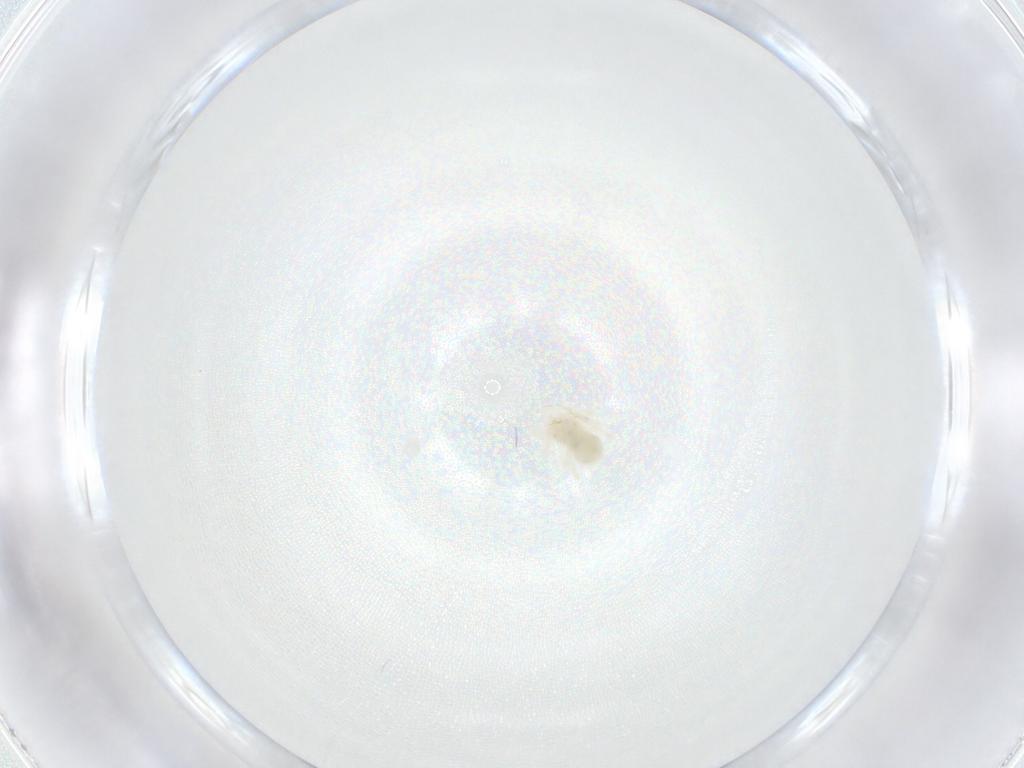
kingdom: Animalia
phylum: Arthropoda
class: Arachnida
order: Trombidiformes
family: Anystidae
